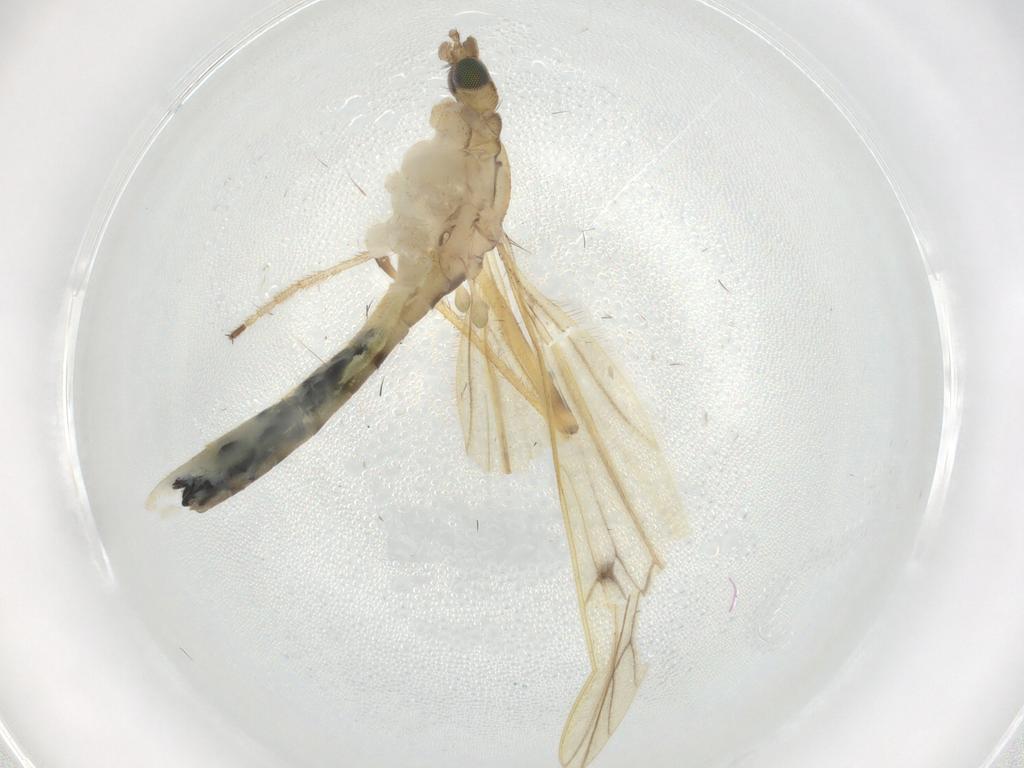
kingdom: Animalia
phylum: Arthropoda
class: Insecta
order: Diptera
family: Limoniidae
